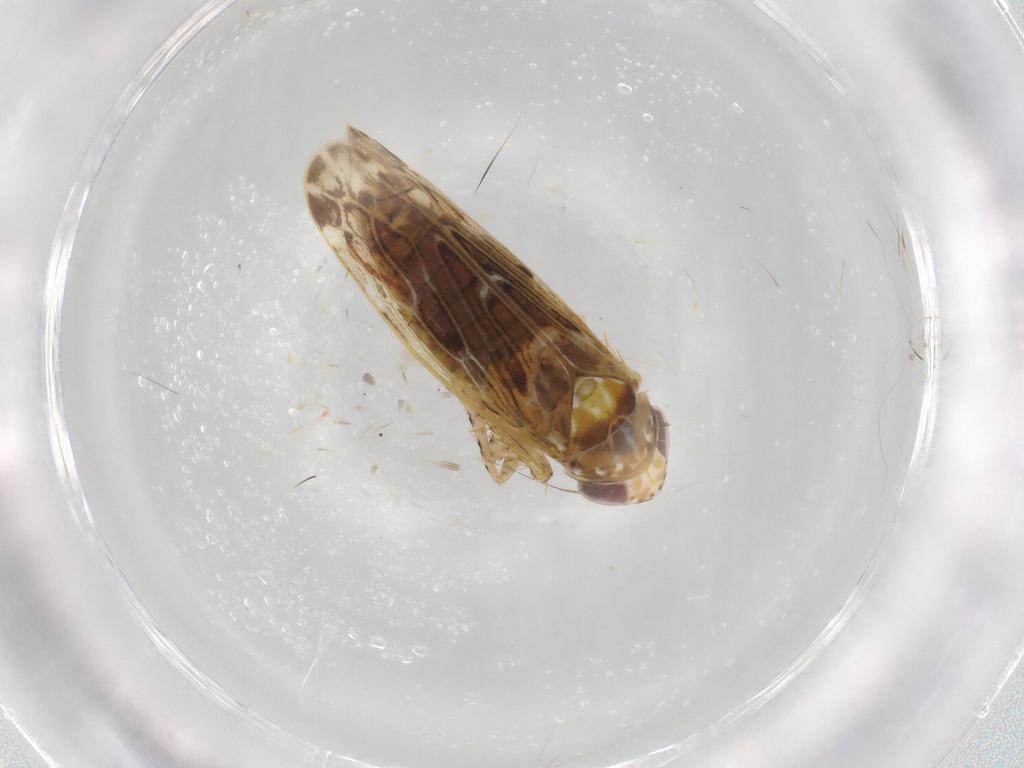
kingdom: Animalia
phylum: Arthropoda
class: Insecta
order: Hemiptera
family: Cicadellidae
